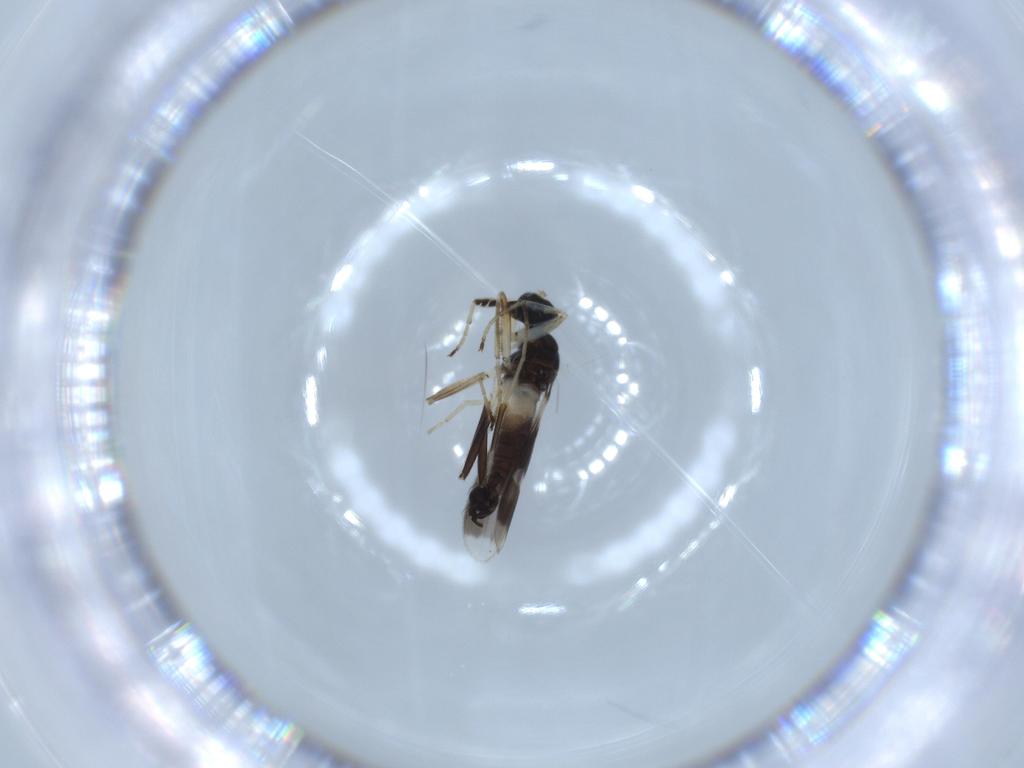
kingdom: Animalia
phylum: Arthropoda
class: Insecta
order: Diptera
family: Hybotidae
